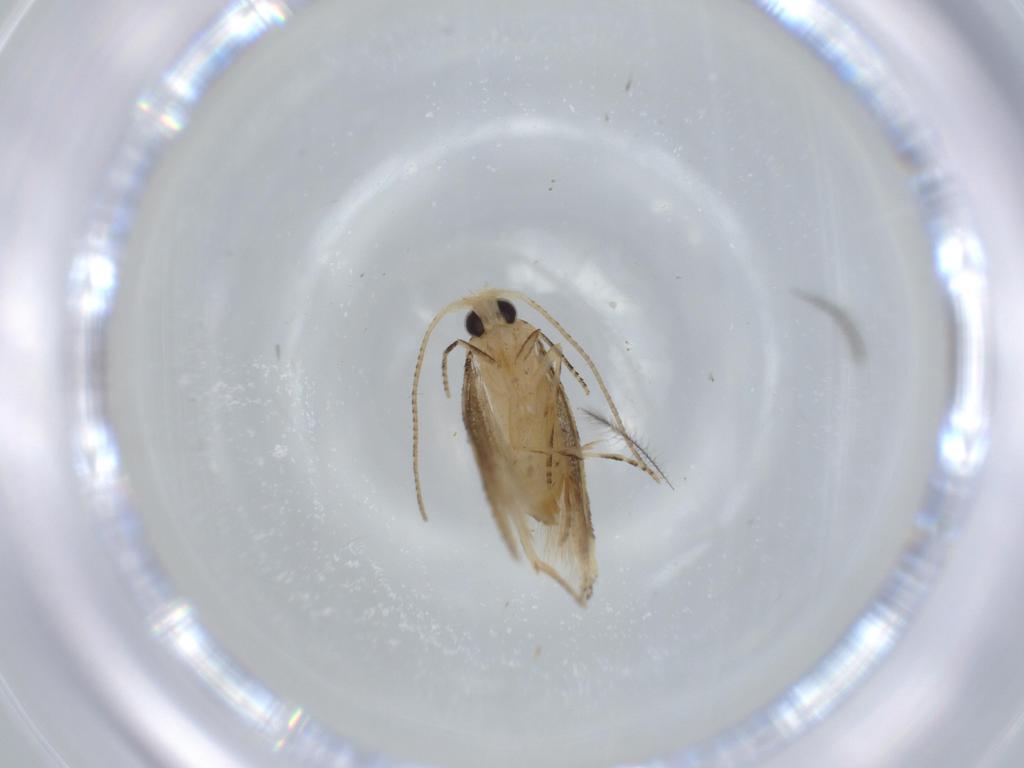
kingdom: Animalia
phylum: Arthropoda
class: Insecta
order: Lepidoptera
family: Bucculatricidae
